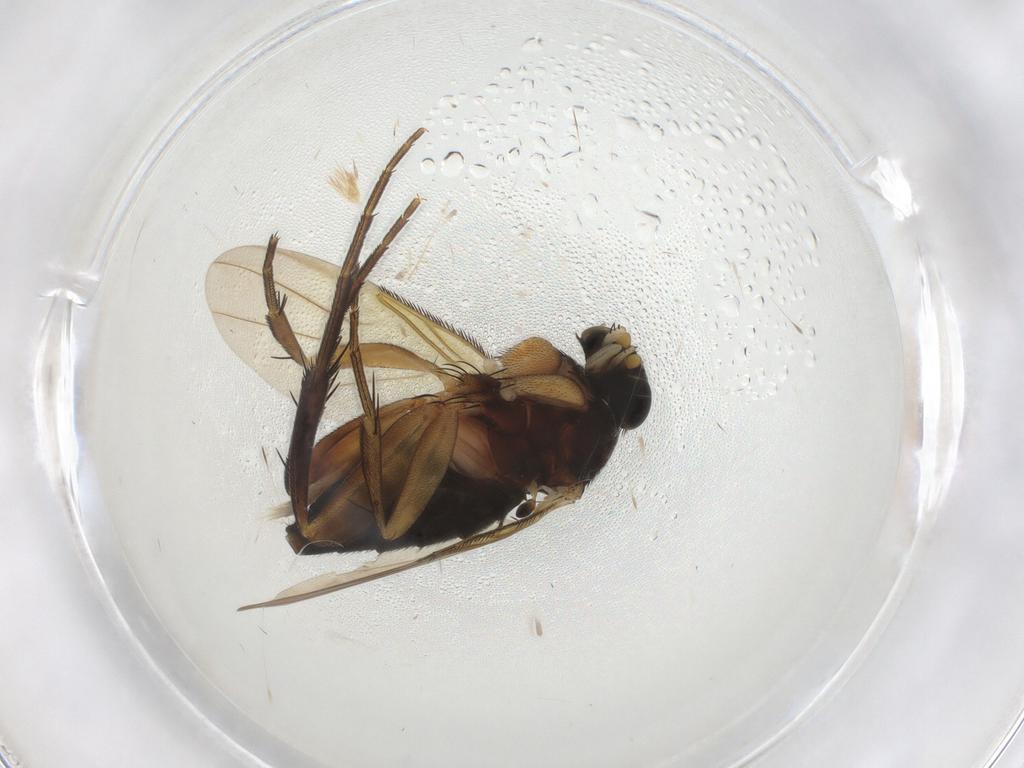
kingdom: Animalia
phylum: Arthropoda
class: Insecta
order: Diptera
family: Phoridae
